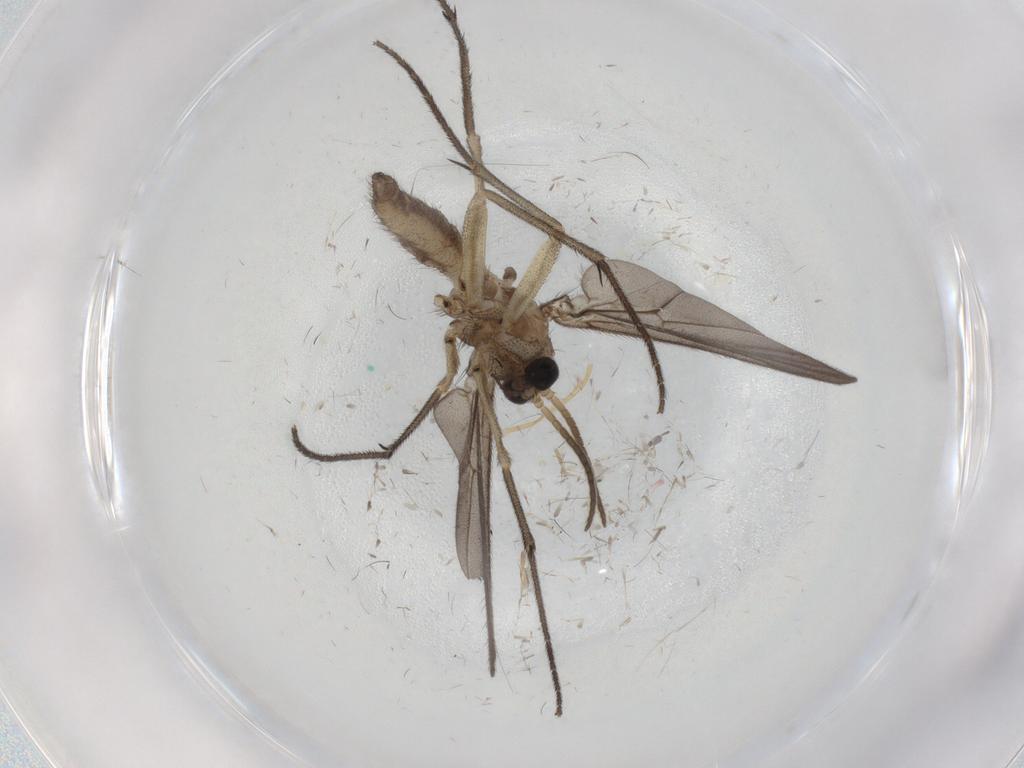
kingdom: Animalia
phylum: Arthropoda
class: Insecta
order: Diptera
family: Diadocidiidae
